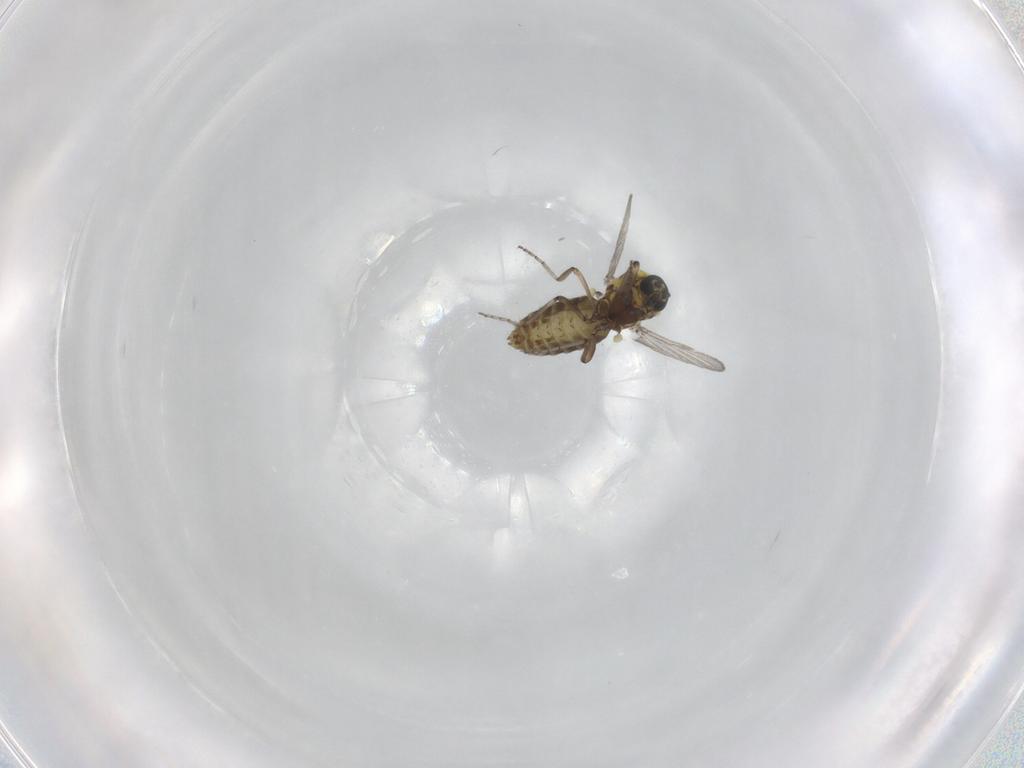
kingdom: Animalia
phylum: Arthropoda
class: Insecta
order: Diptera
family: Ceratopogonidae
